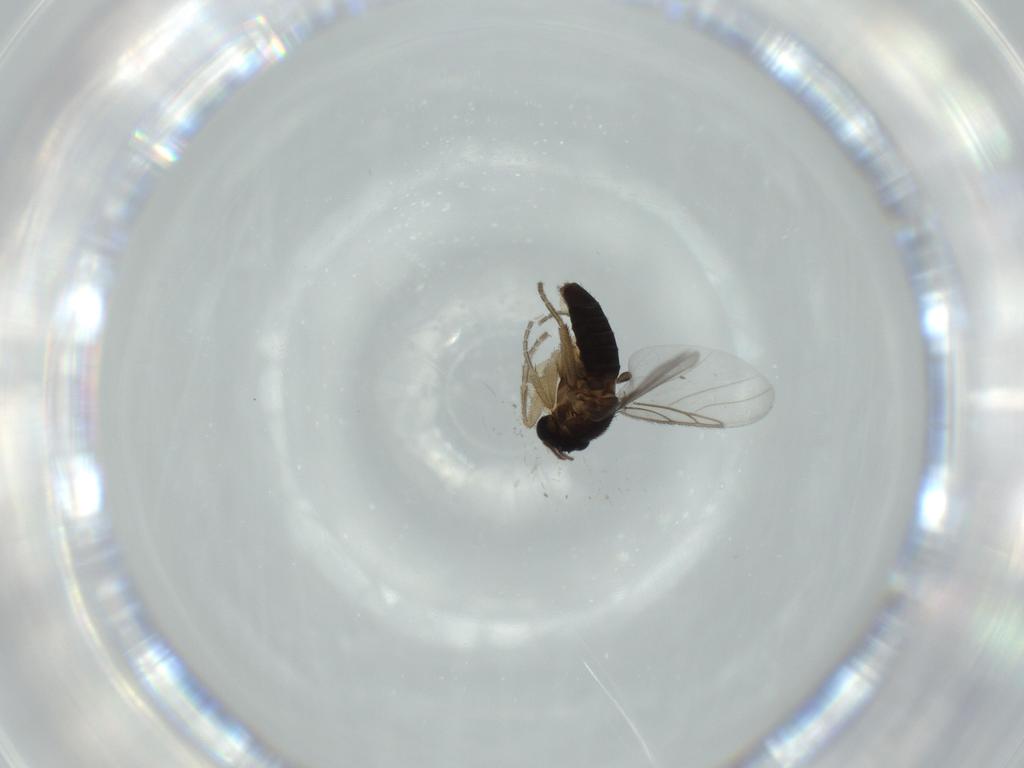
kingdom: Animalia
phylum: Arthropoda
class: Insecta
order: Diptera
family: Phoridae
